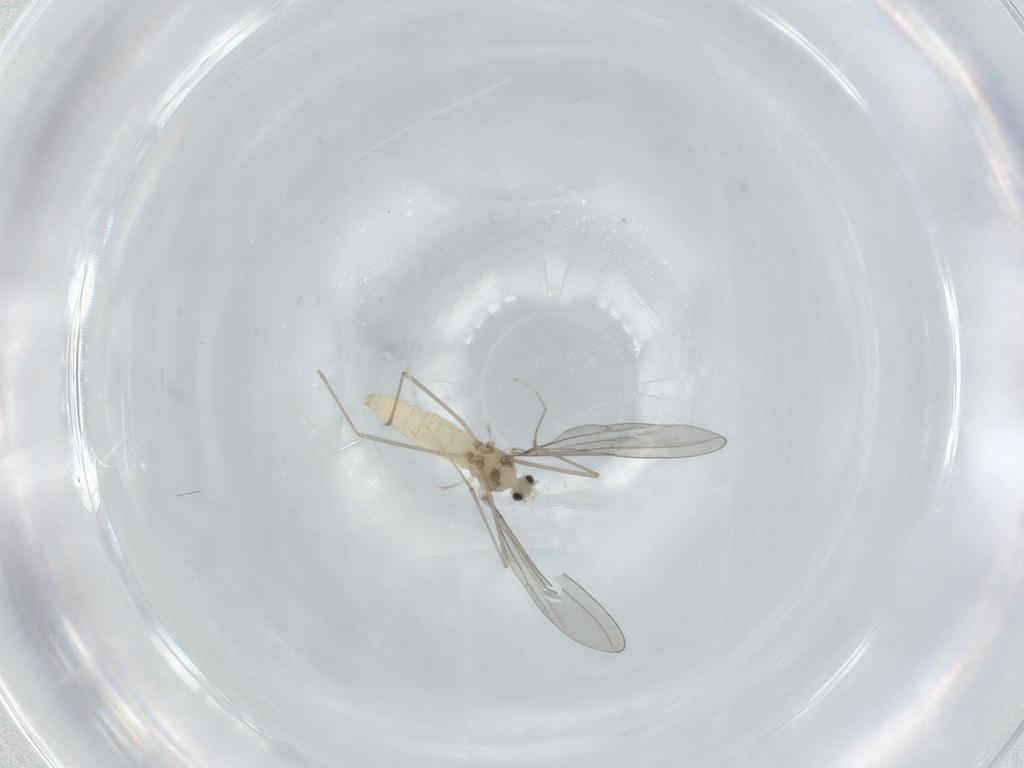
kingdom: Animalia
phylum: Arthropoda
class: Insecta
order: Diptera
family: Cecidomyiidae
